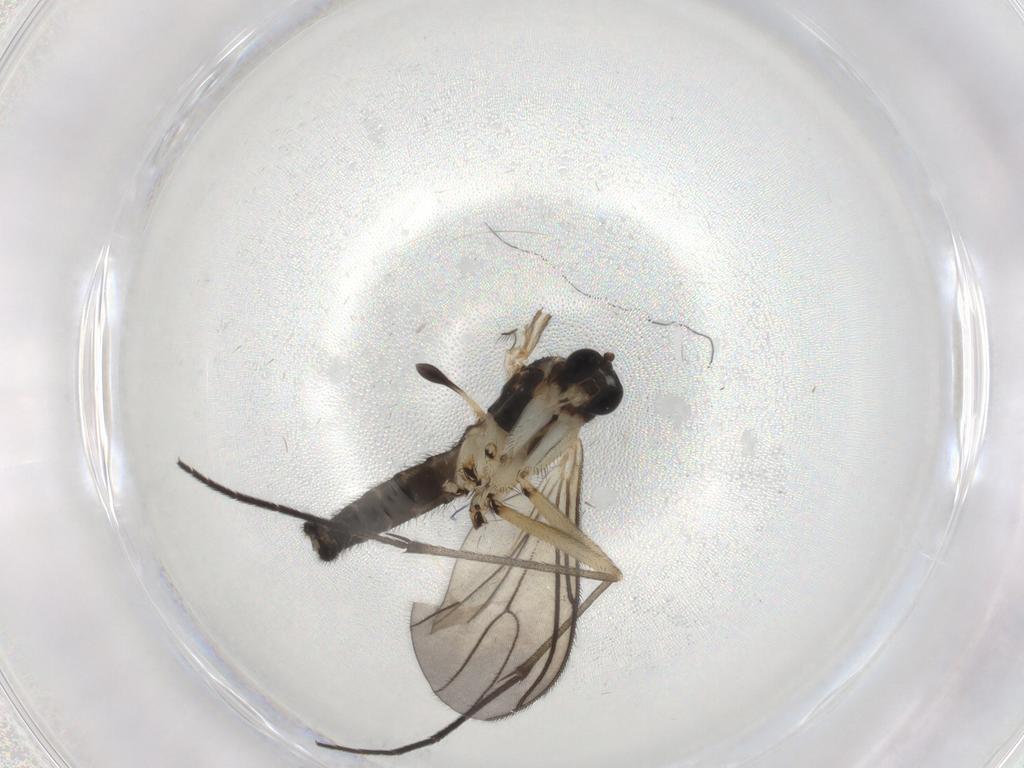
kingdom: Animalia
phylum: Arthropoda
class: Insecta
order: Diptera
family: Sciaridae
